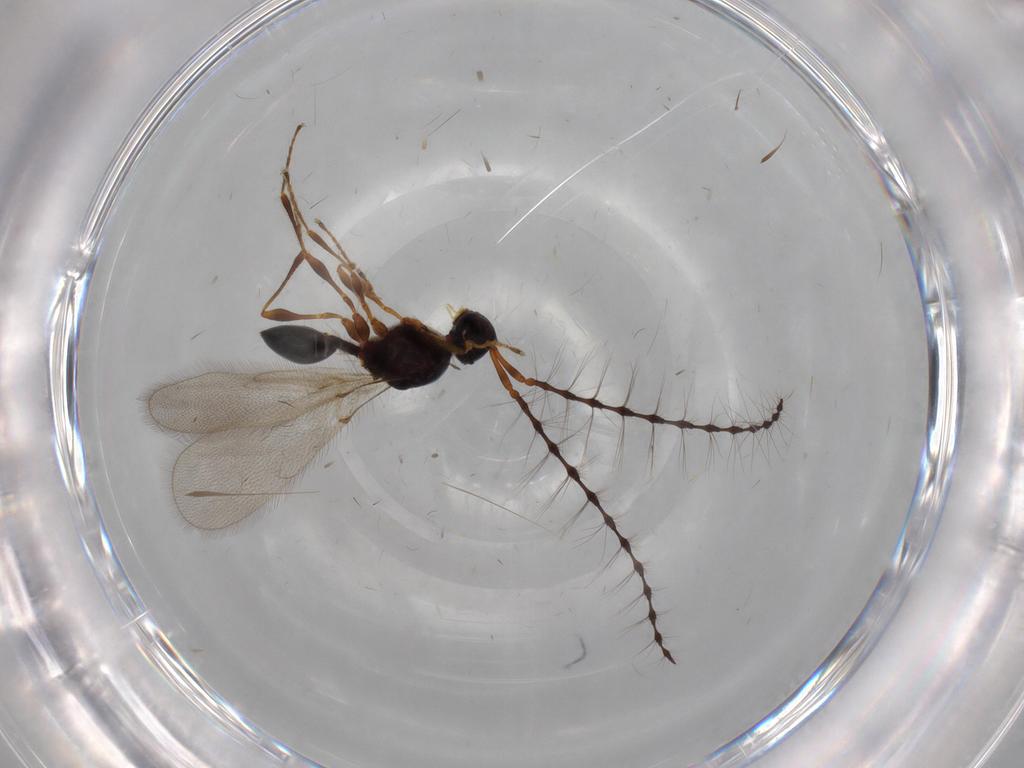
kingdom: Animalia
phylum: Arthropoda
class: Insecta
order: Hymenoptera
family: Diapriidae
